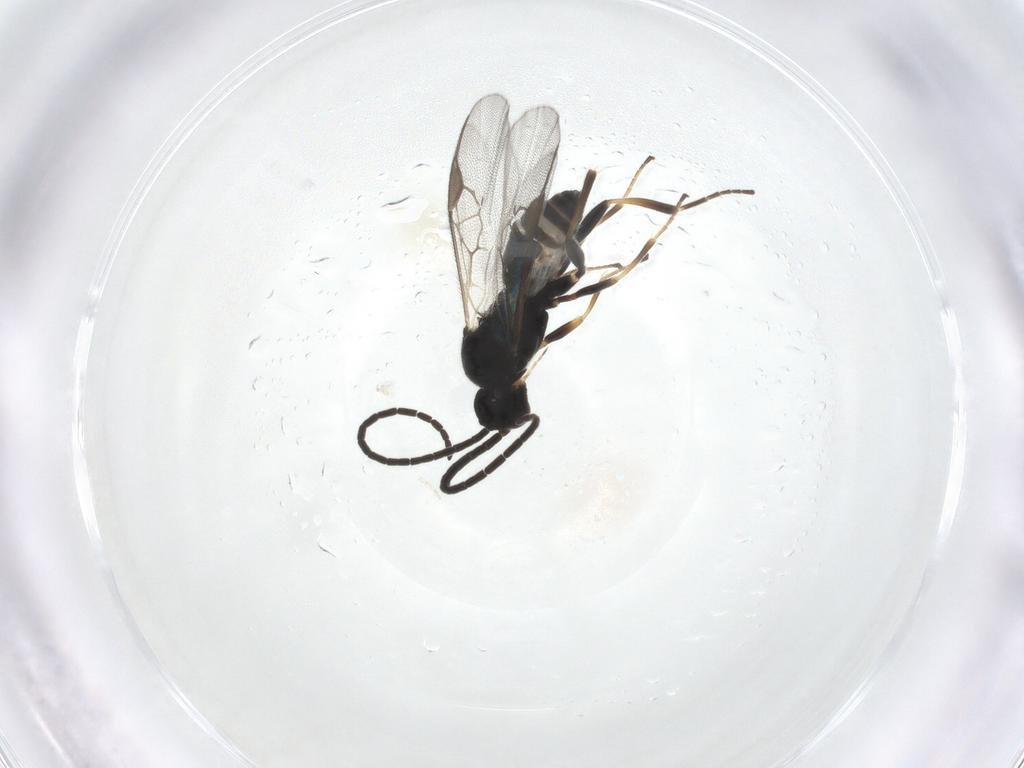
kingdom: Animalia
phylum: Arthropoda
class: Insecta
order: Hymenoptera
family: Braconidae
